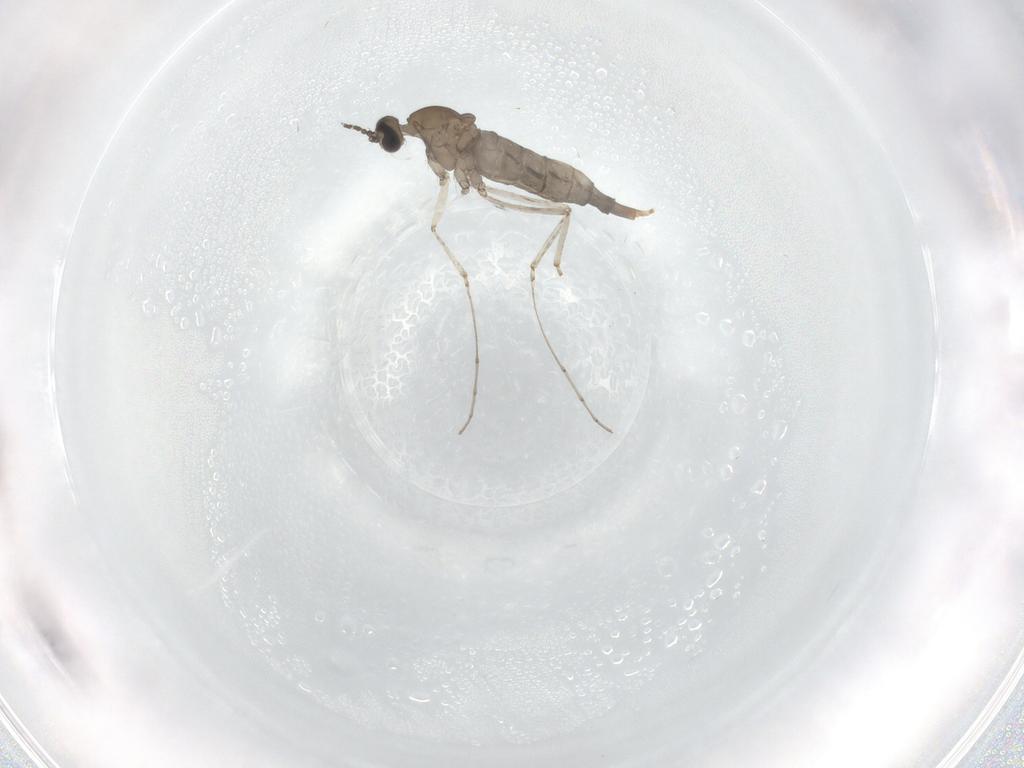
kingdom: Animalia
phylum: Arthropoda
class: Insecta
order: Diptera
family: Cecidomyiidae
